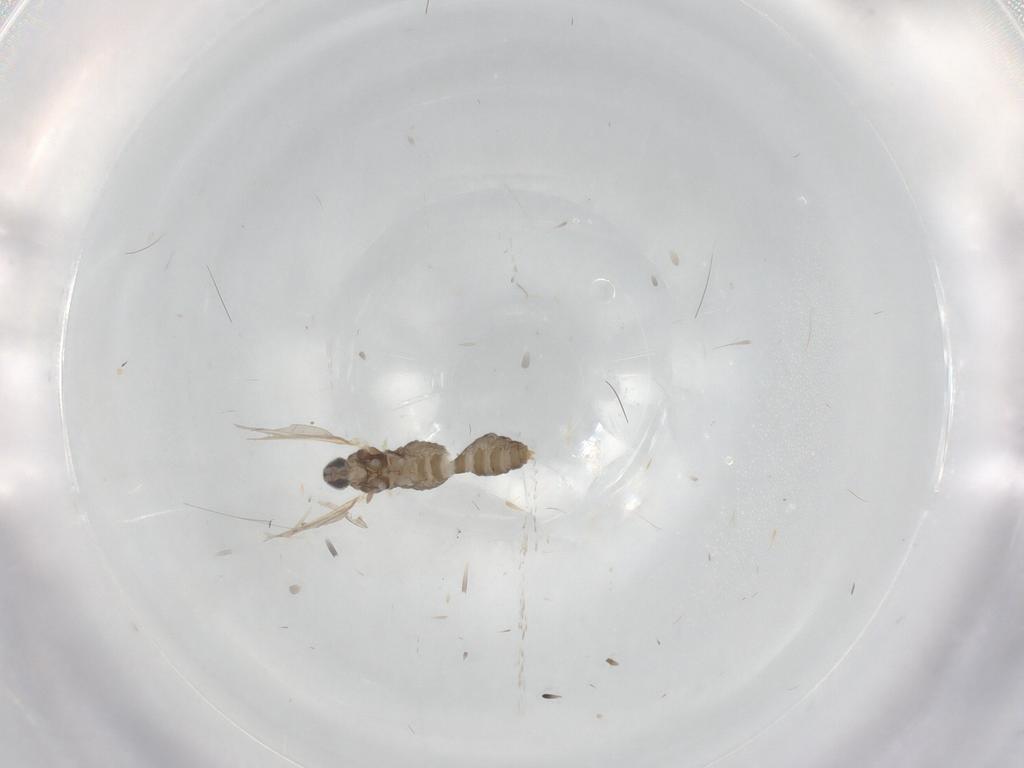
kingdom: Animalia
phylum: Arthropoda
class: Insecta
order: Diptera
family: Cecidomyiidae
